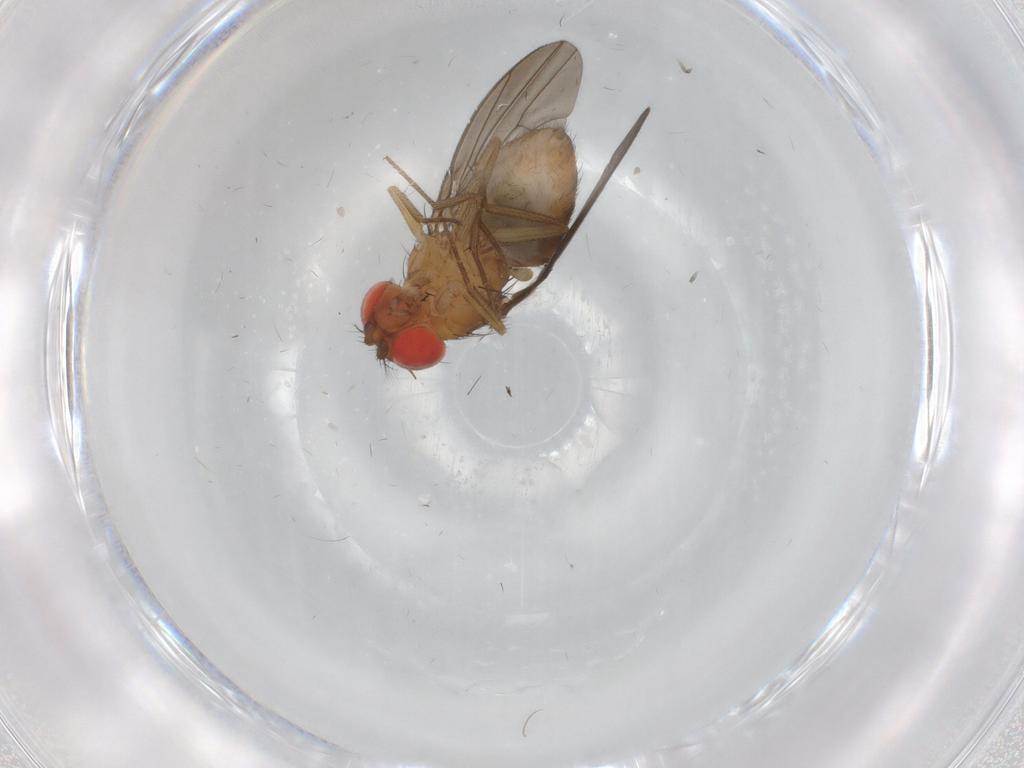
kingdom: Animalia
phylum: Arthropoda
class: Insecta
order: Diptera
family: Drosophilidae
